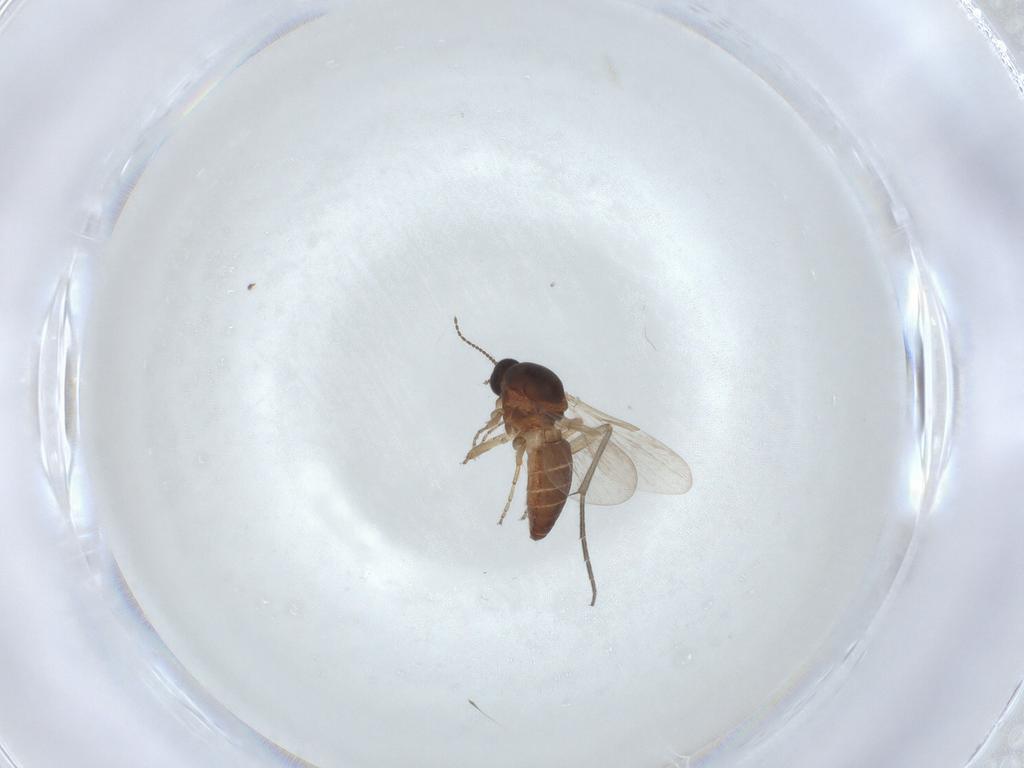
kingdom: Animalia
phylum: Arthropoda
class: Insecta
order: Diptera
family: Ceratopogonidae
